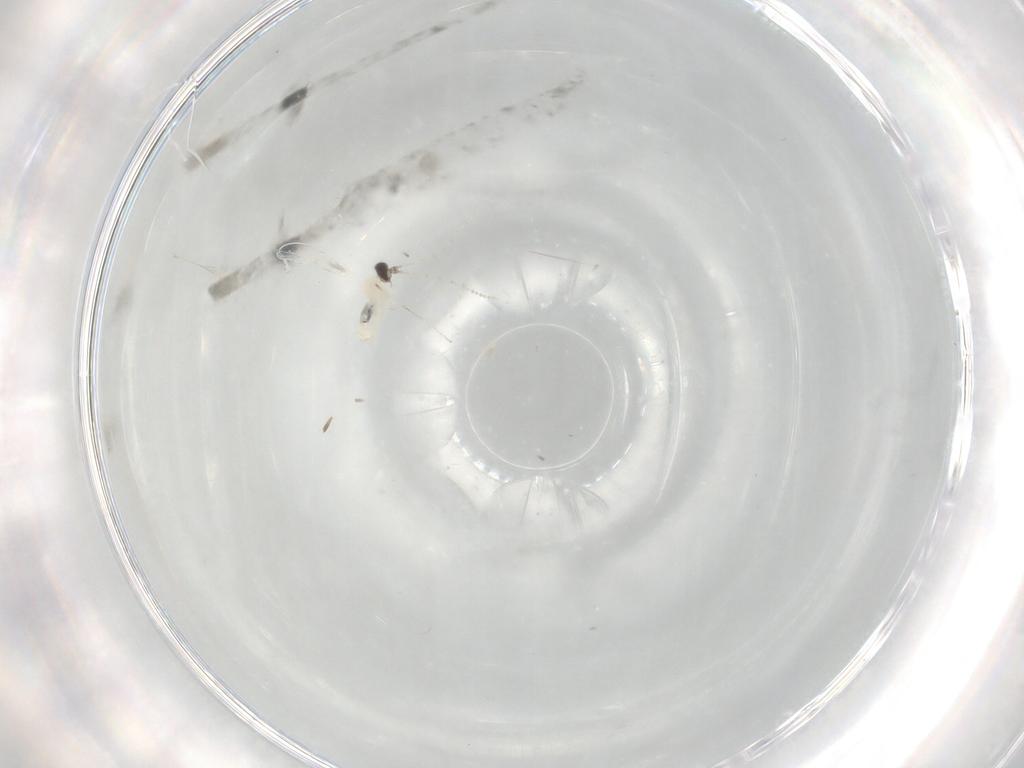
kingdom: Animalia
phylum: Arthropoda
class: Insecta
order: Diptera
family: Cecidomyiidae
